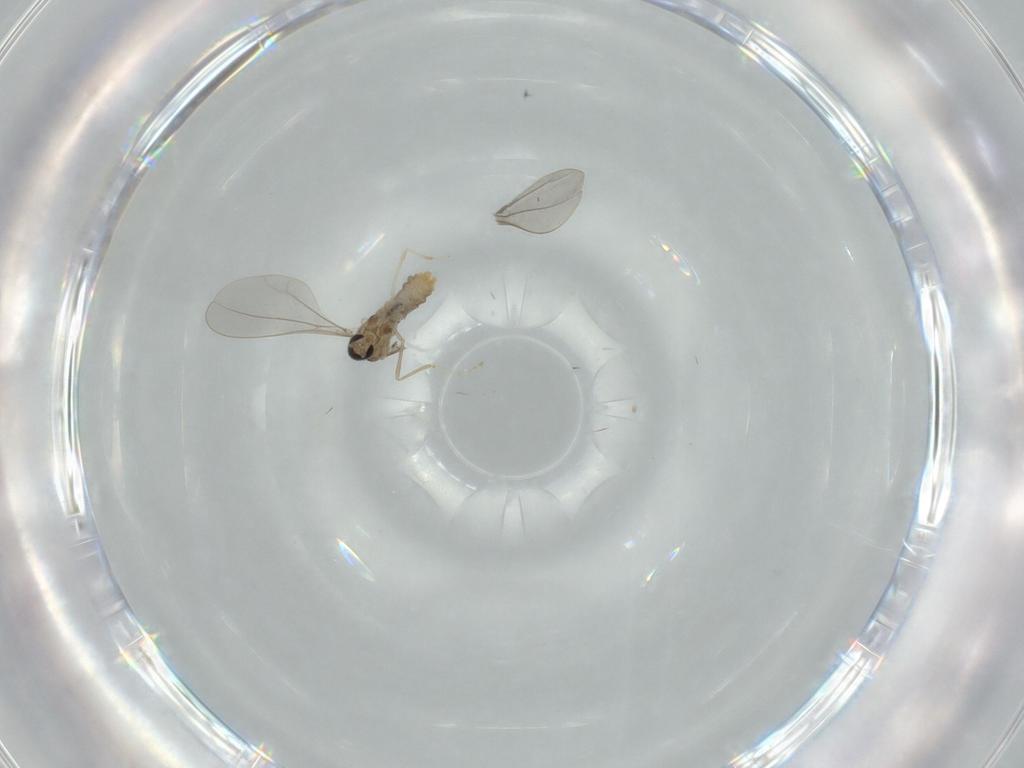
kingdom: Animalia
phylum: Arthropoda
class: Insecta
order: Diptera
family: Cecidomyiidae
